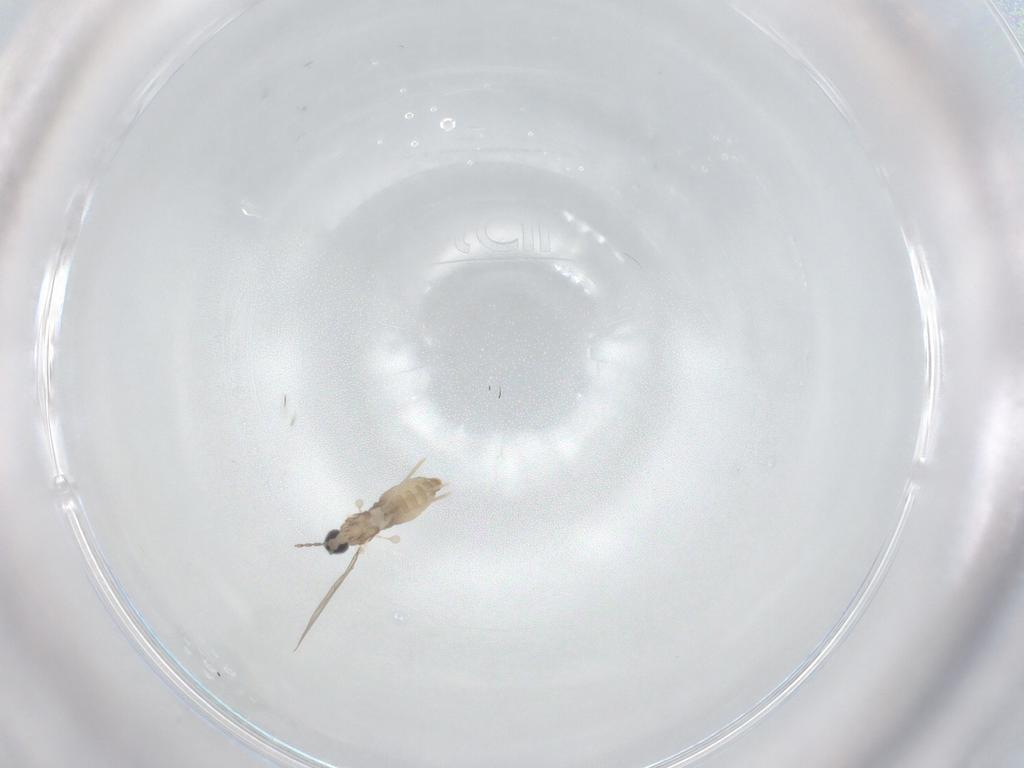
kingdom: Animalia
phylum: Arthropoda
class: Insecta
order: Diptera
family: Cecidomyiidae
